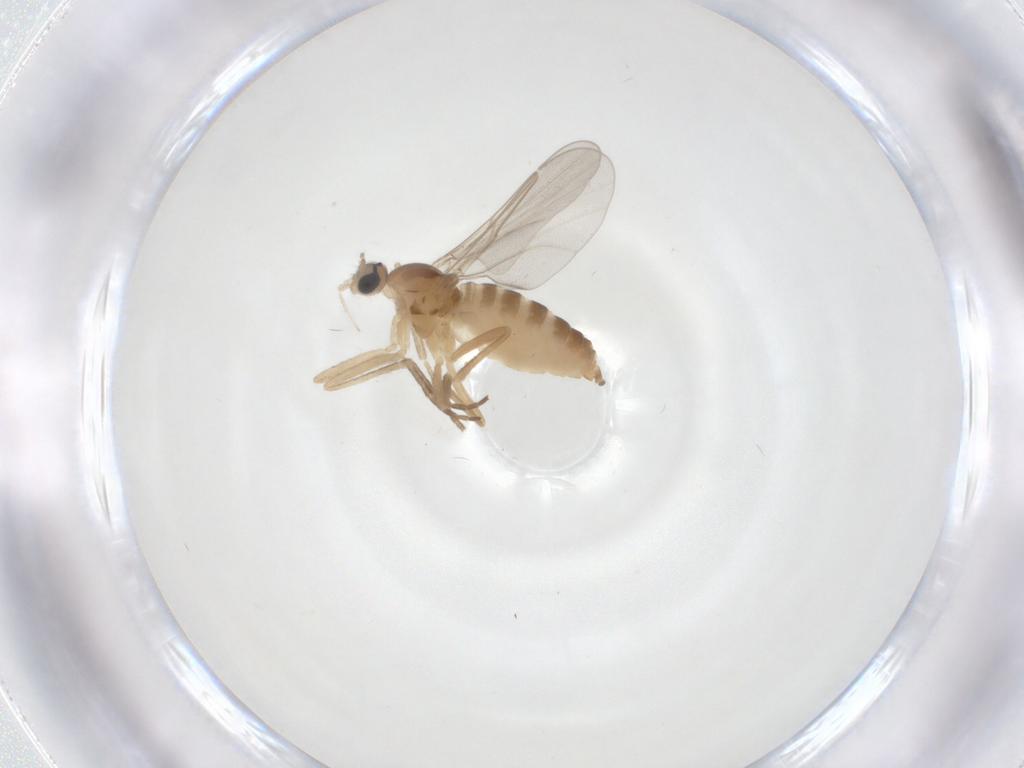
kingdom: Animalia
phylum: Arthropoda
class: Insecta
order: Diptera
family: Cecidomyiidae
